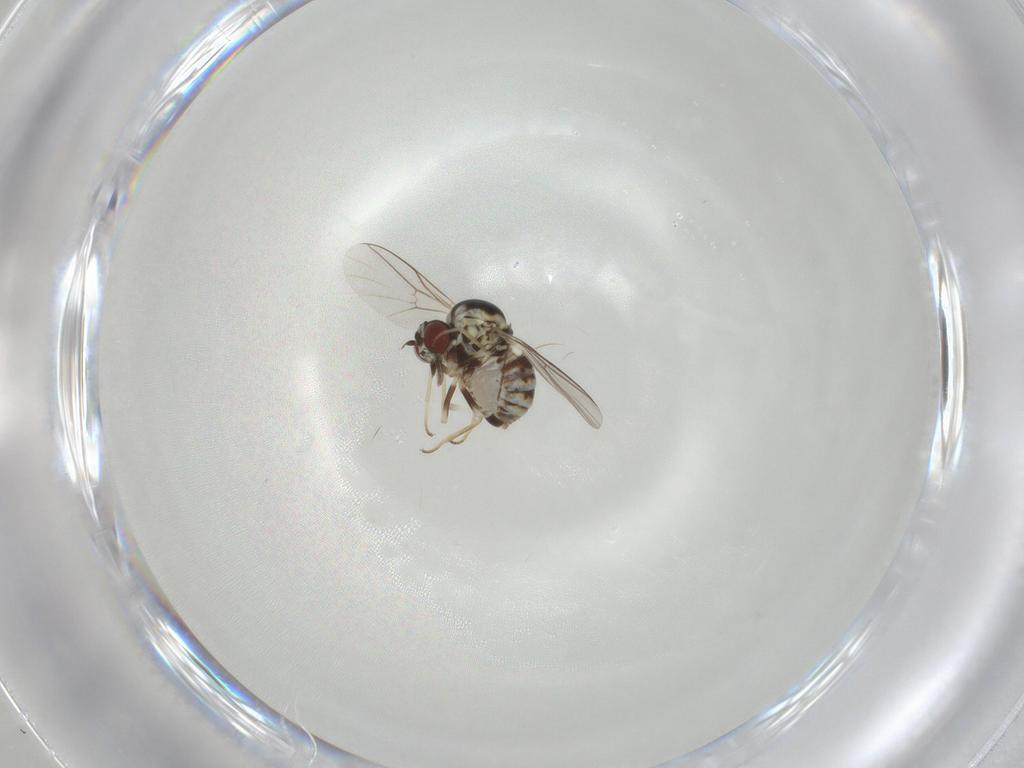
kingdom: Animalia
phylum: Arthropoda
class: Insecta
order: Diptera
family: Bombyliidae
